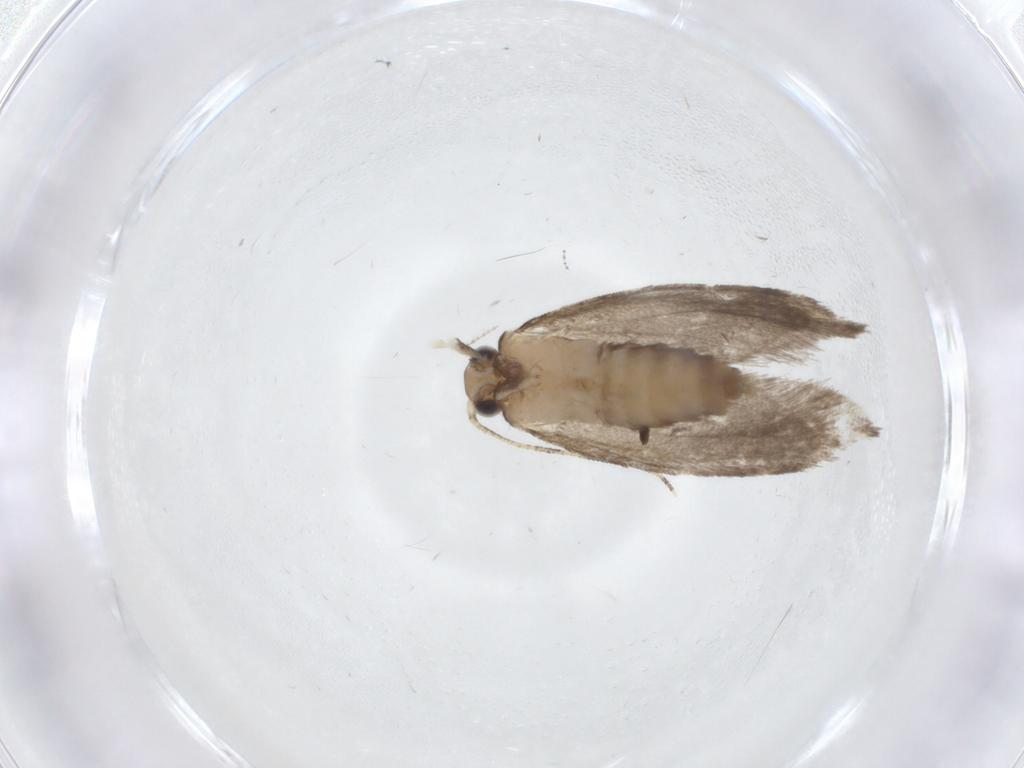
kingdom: Animalia
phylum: Arthropoda
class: Insecta
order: Lepidoptera
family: Tineidae
